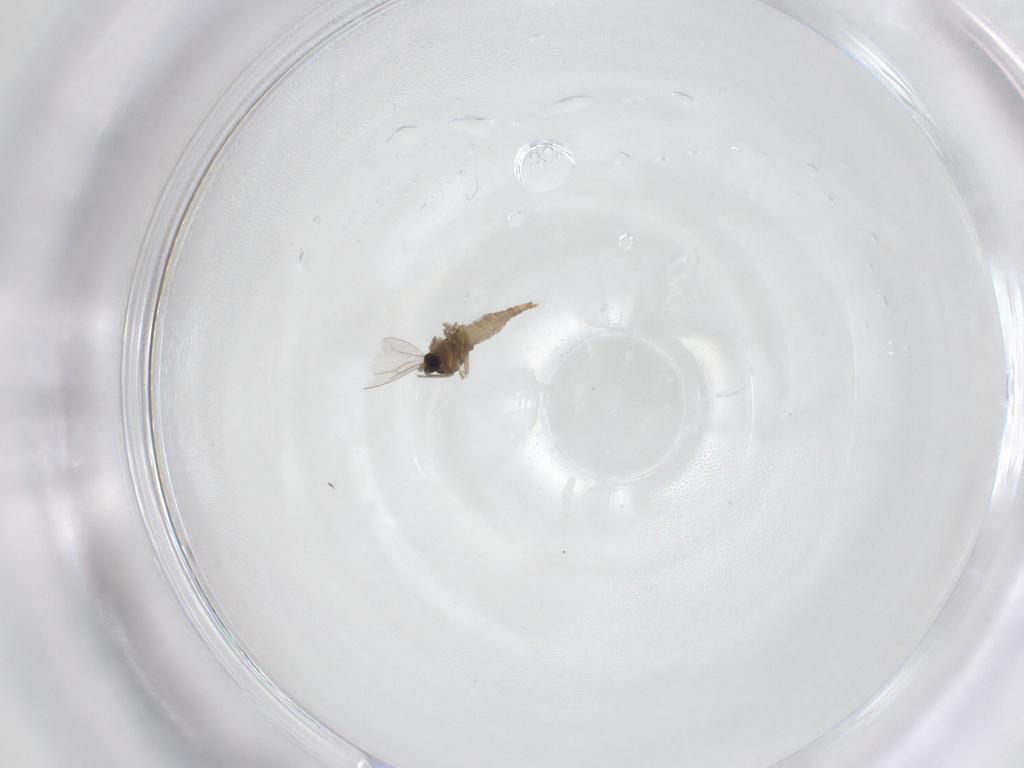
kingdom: Animalia
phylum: Arthropoda
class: Insecta
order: Diptera
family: Cecidomyiidae
